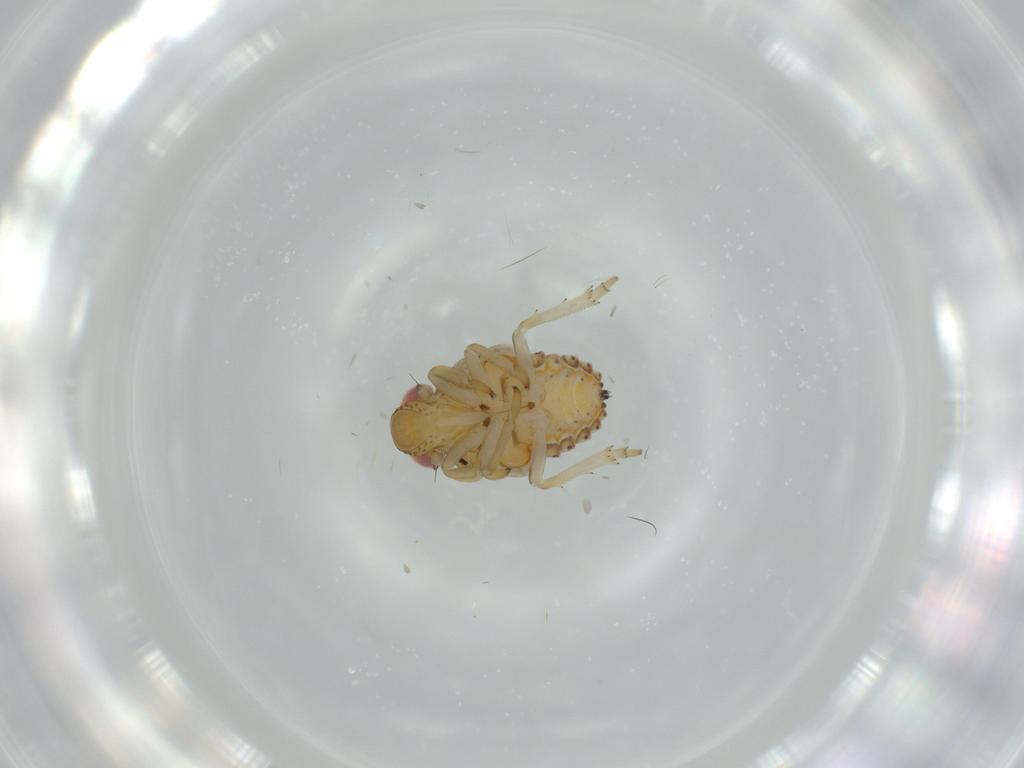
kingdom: Animalia
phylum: Arthropoda
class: Insecta
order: Hemiptera
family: Issidae
